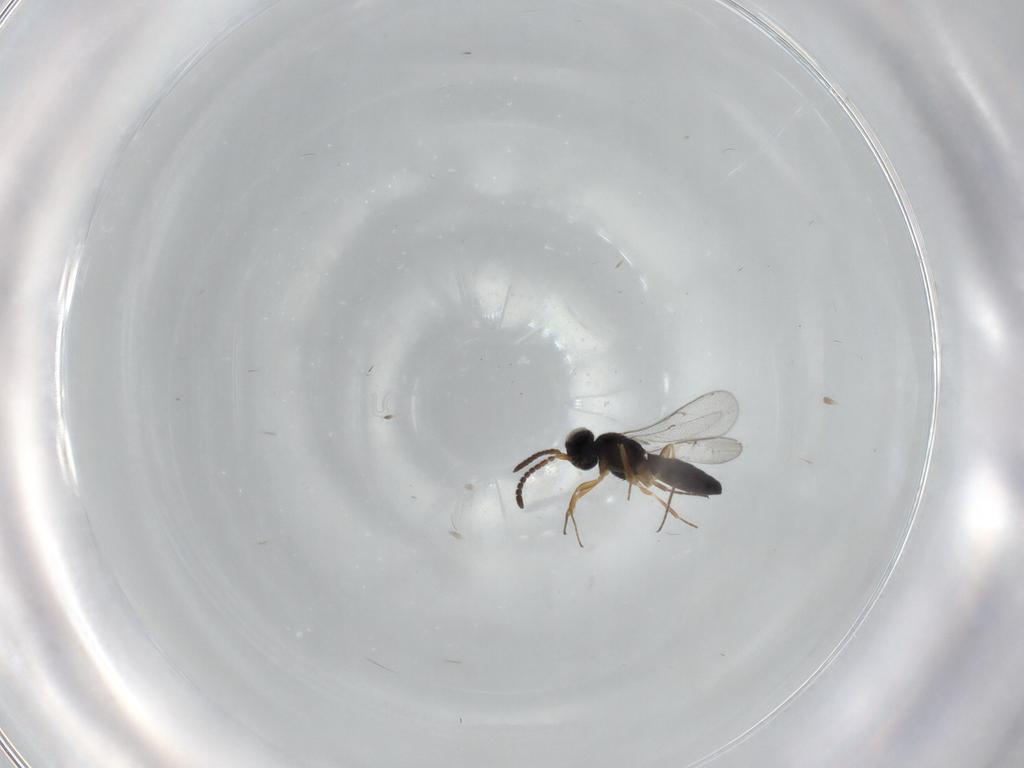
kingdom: Animalia
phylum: Arthropoda
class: Insecta
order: Hymenoptera
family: Scelionidae
